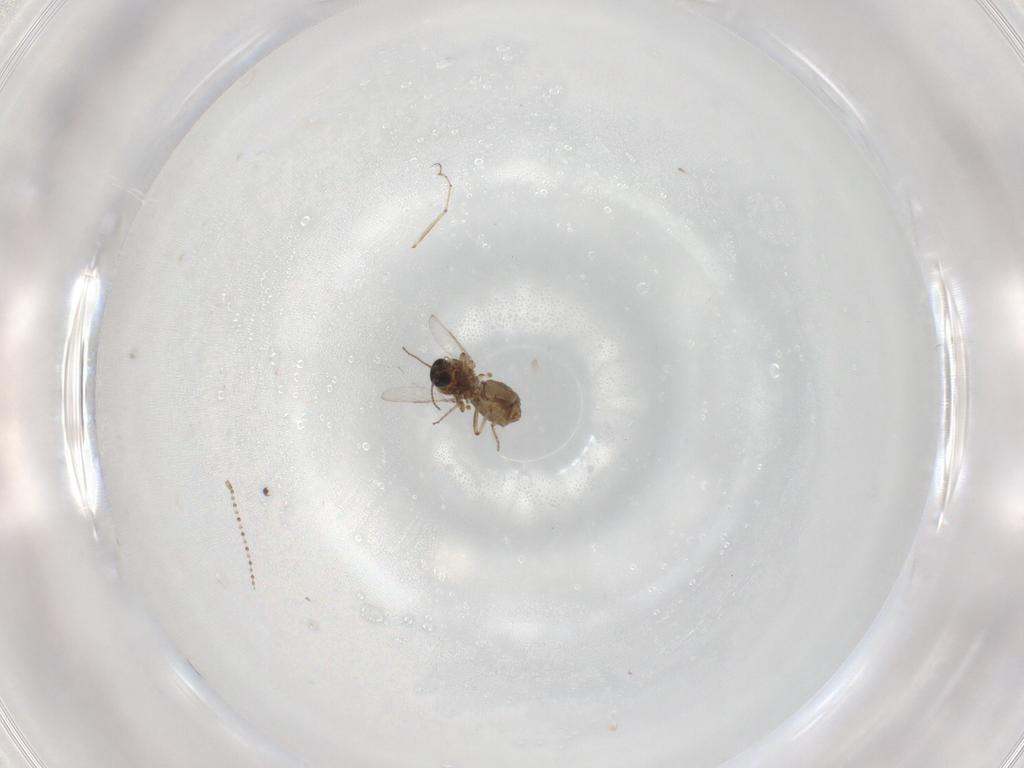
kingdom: Animalia
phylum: Arthropoda
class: Insecta
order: Diptera
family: Ceratopogonidae
